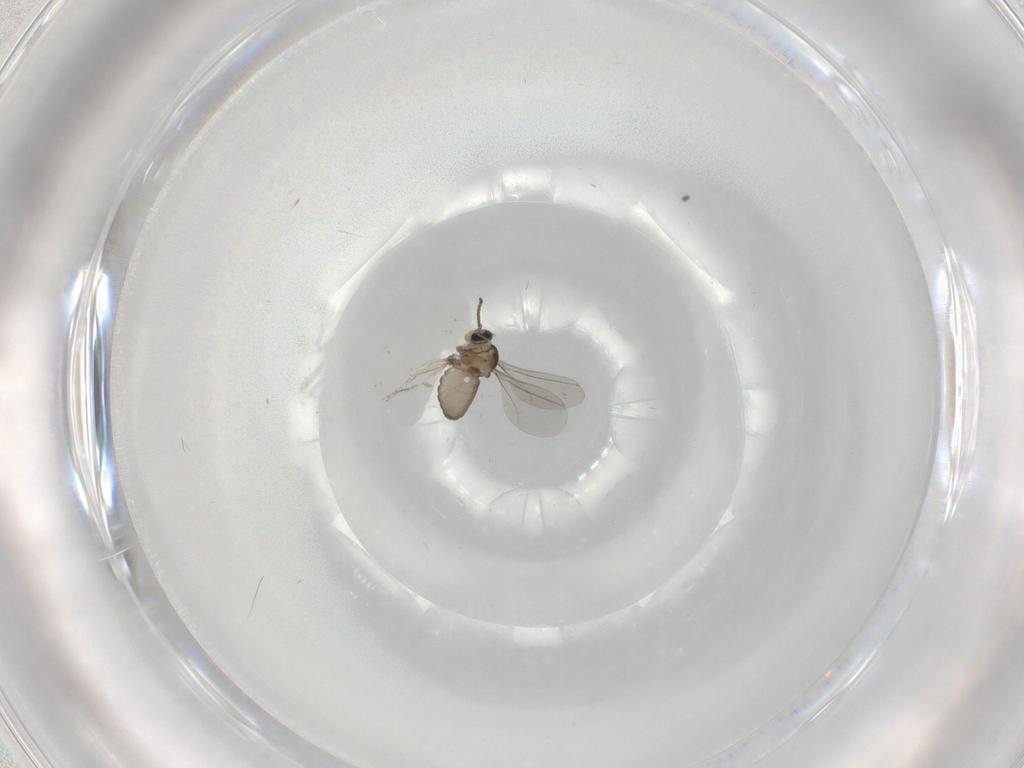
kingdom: Animalia
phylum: Arthropoda
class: Insecta
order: Diptera
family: Cecidomyiidae
